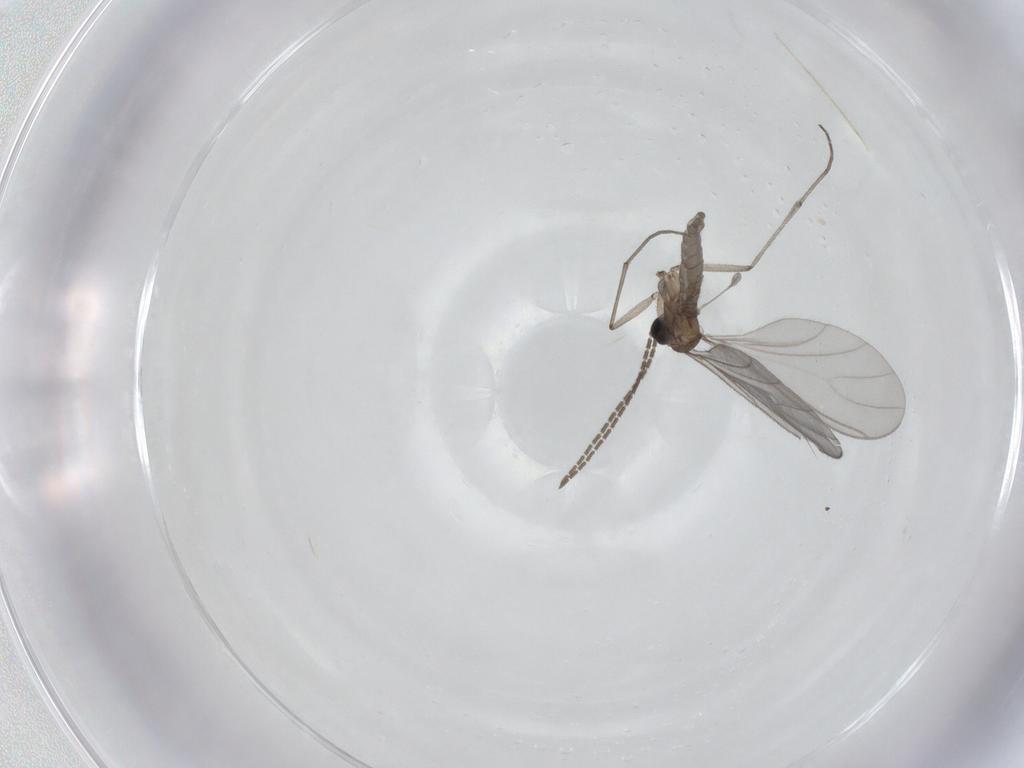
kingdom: Animalia
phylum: Arthropoda
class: Insecta
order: Diptera
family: Sciaridae
